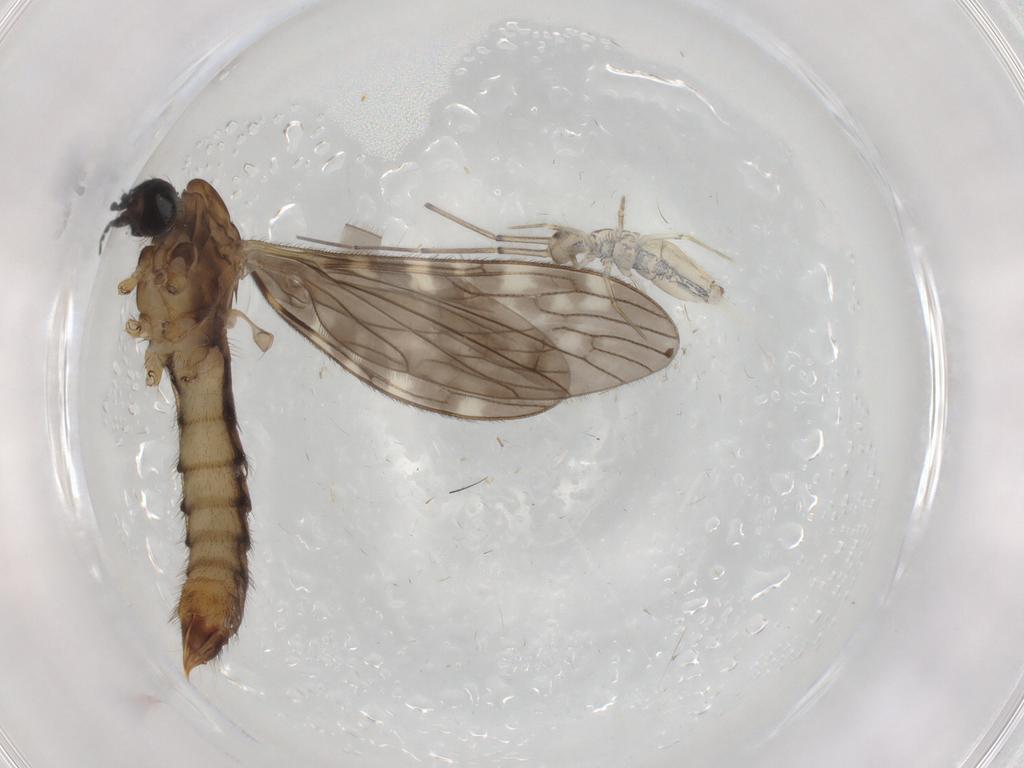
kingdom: Animalia
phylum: Arthropoda
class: Insecta
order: Diptera
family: Limoniidae
